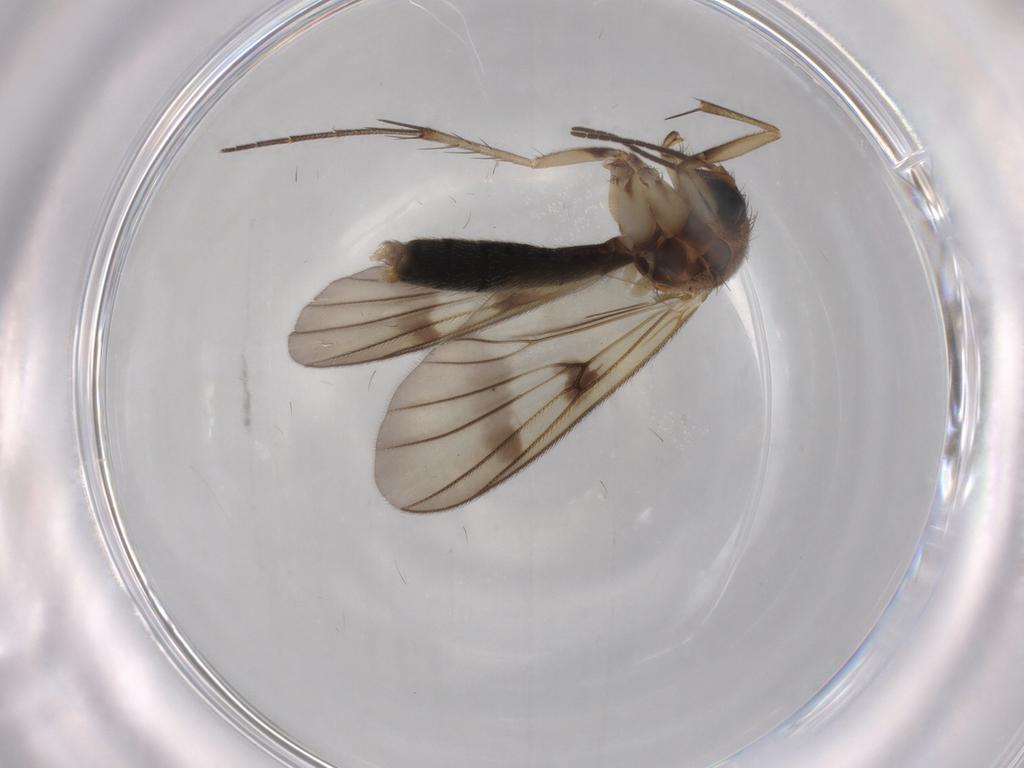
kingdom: Animalia
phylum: Arthropoda
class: Insecta
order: Diptera
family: Mycetophilidae
